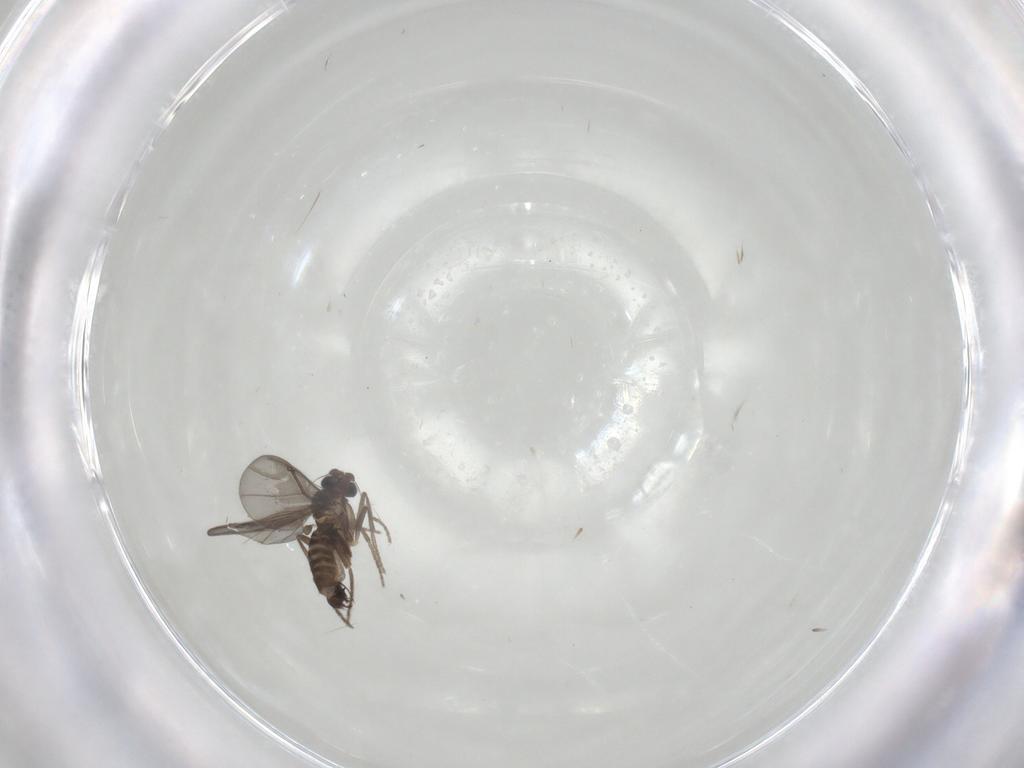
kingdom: Animalia
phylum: Arthropoda
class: Insecta
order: Diptera
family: Phoridae
